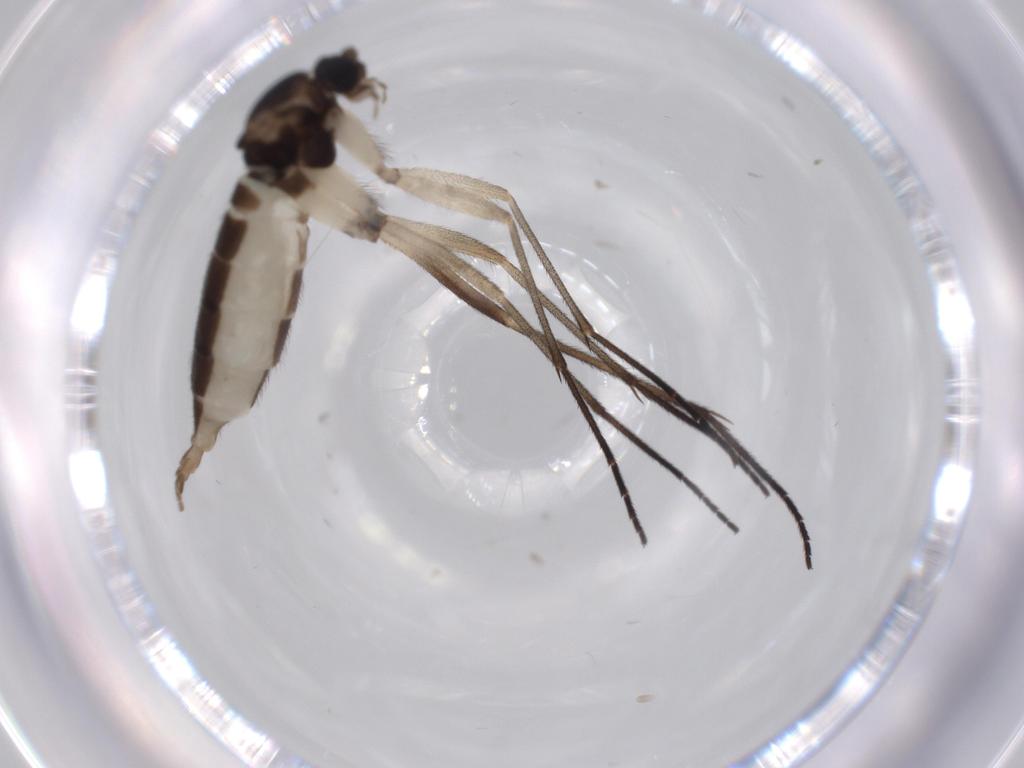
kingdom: Animalia
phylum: Arthropoda
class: Insecta
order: Diptera
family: Sciaridae
